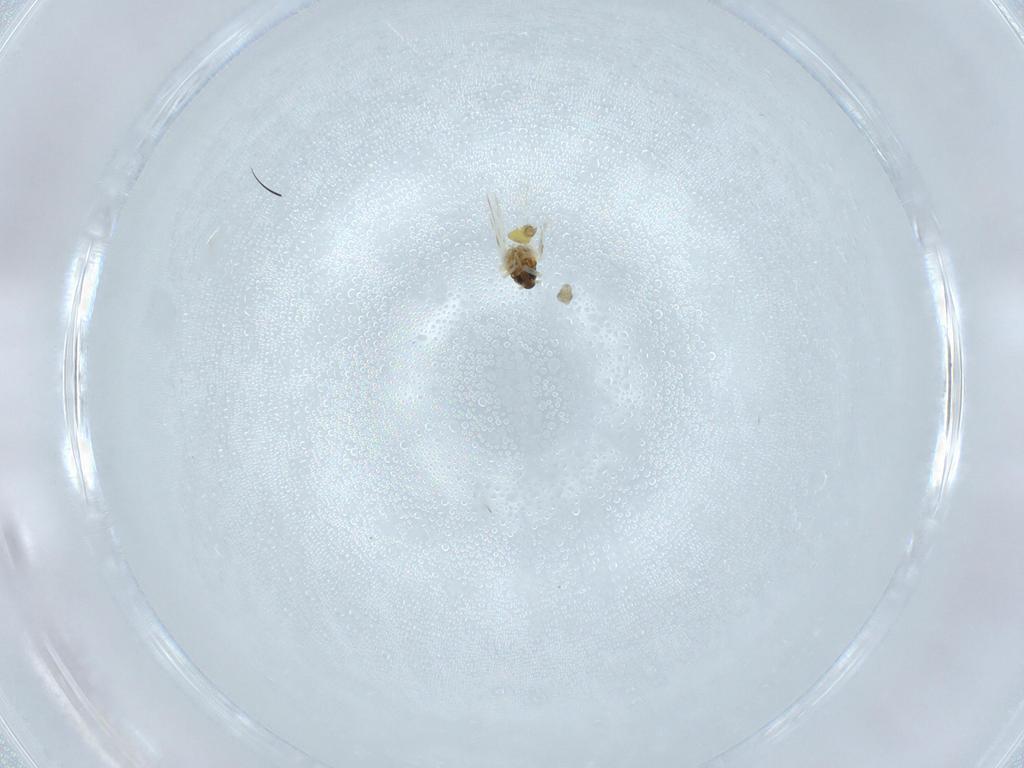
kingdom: Animalia
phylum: Arthropoda
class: Insecta
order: Hemiptera
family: Aleyrodidae
